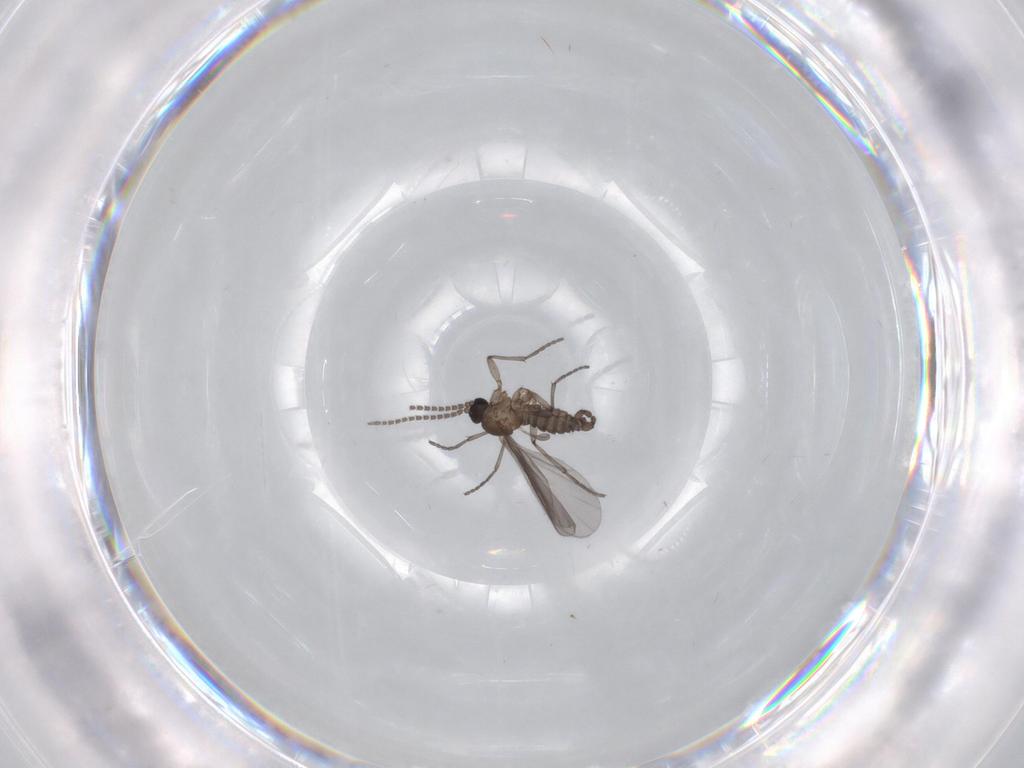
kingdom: Animalia
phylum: Arthropoda
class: Insecta
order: Diptera
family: Sciaridae
